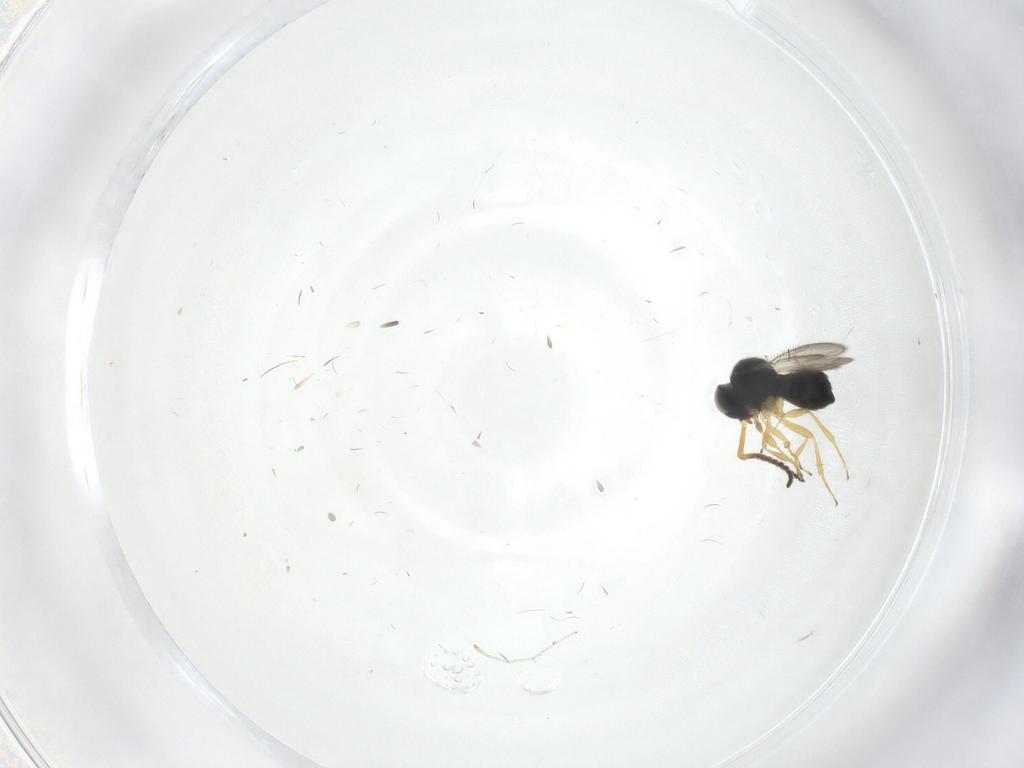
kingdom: Animalia
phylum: Arthropoda
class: Insecta
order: Hymenoptera
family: Scelionidae
